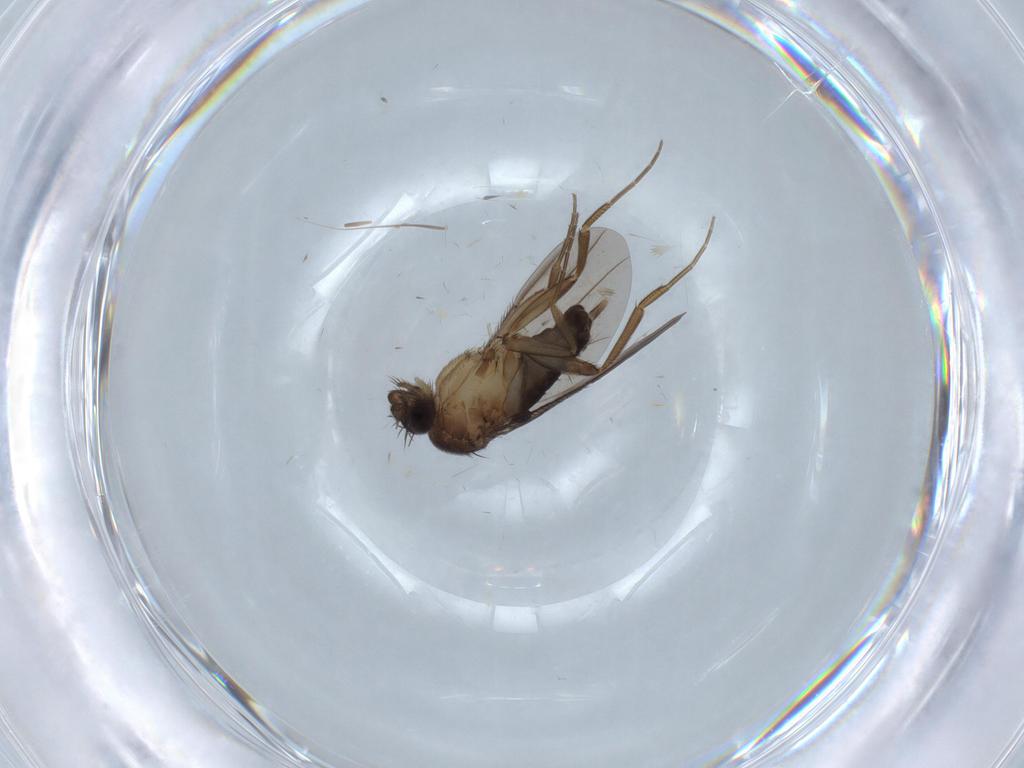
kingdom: Animalia
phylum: Arthropoda
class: Insecta
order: Diptera
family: Phoridae
